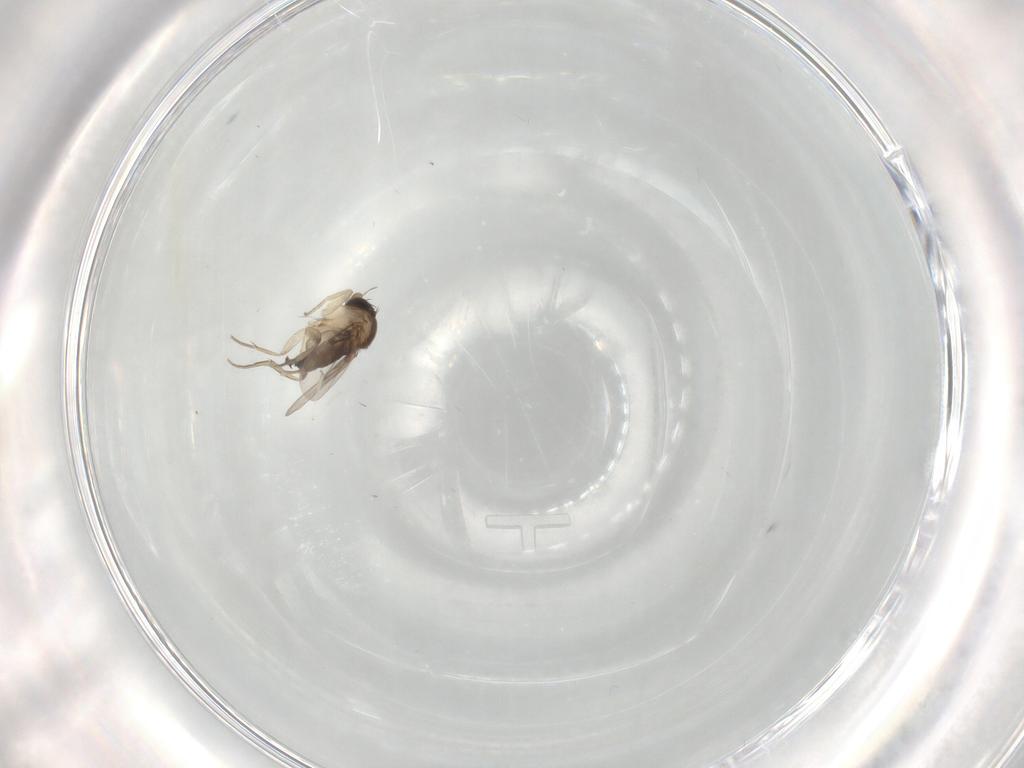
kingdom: Animalia
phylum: Arthropoda
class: Insecta
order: Diptera
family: Phoridae
